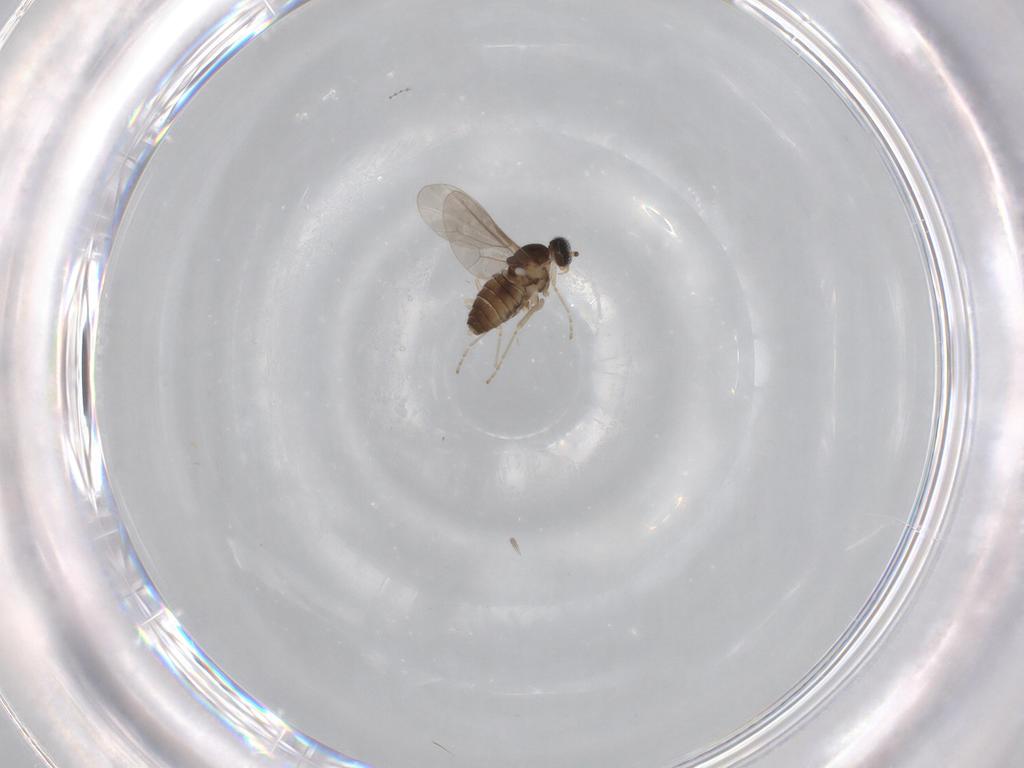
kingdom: Animalia
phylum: Arthropoda
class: Insecta
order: Diptera
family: Cecidomyiidae
